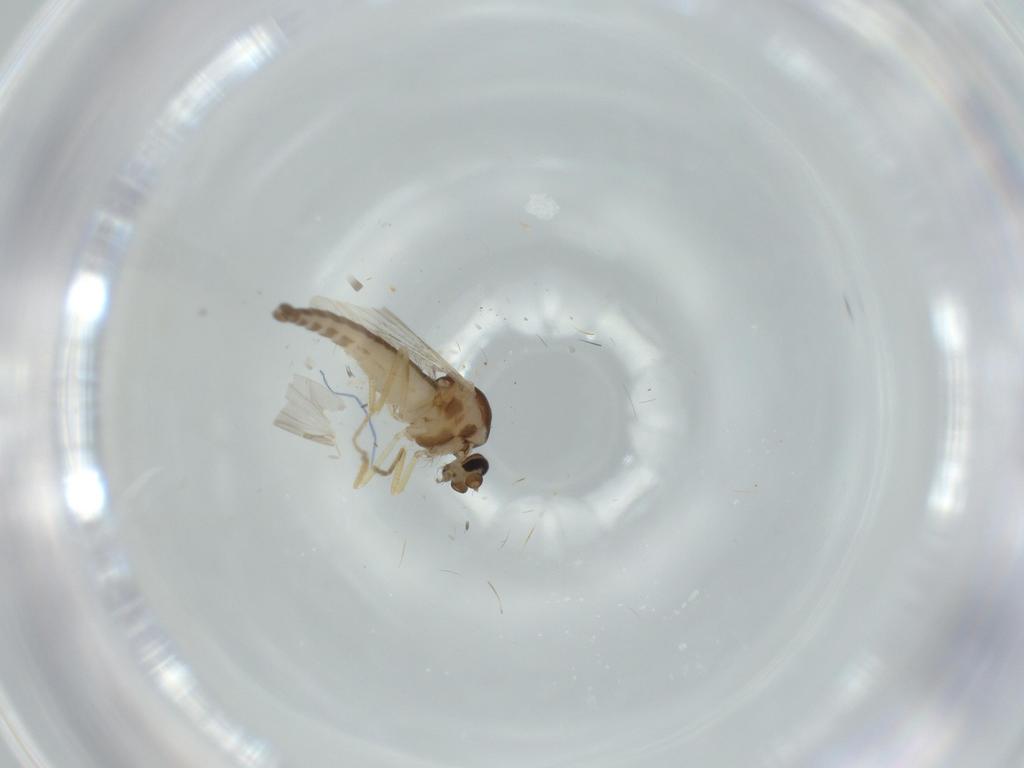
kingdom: Animalia
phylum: Arthropoda
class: Insecta
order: Diptera
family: Ceratopogonidae
